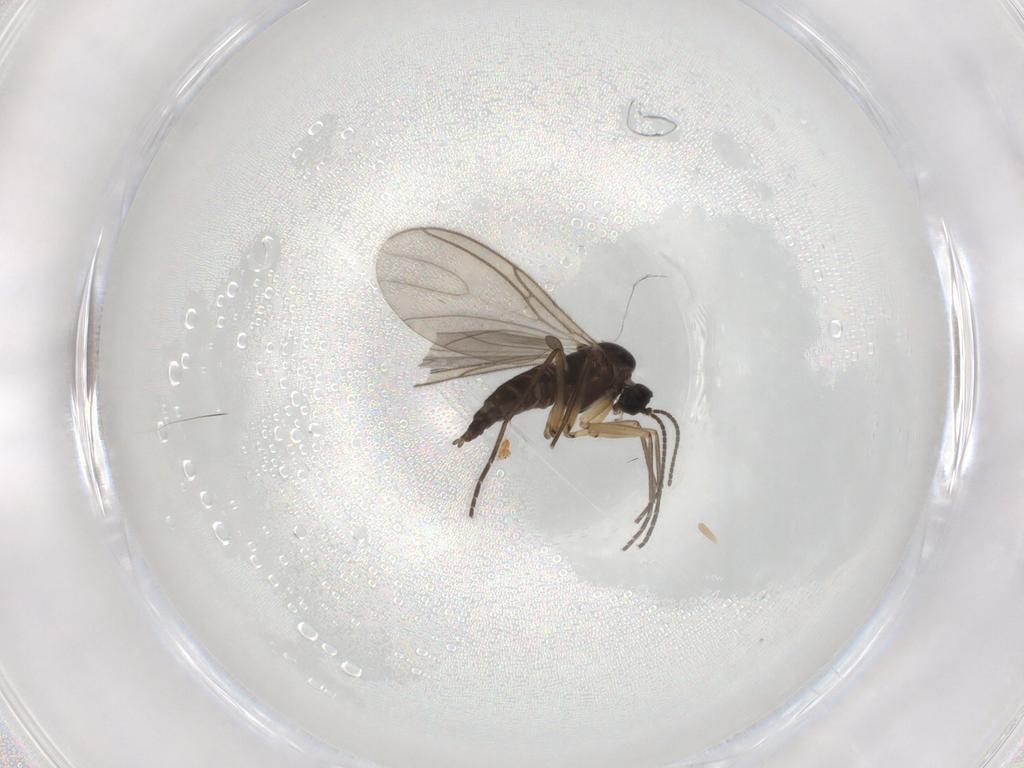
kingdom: Animalia
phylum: Arthropoda
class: Insecta
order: Diptera
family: Sciaridae
